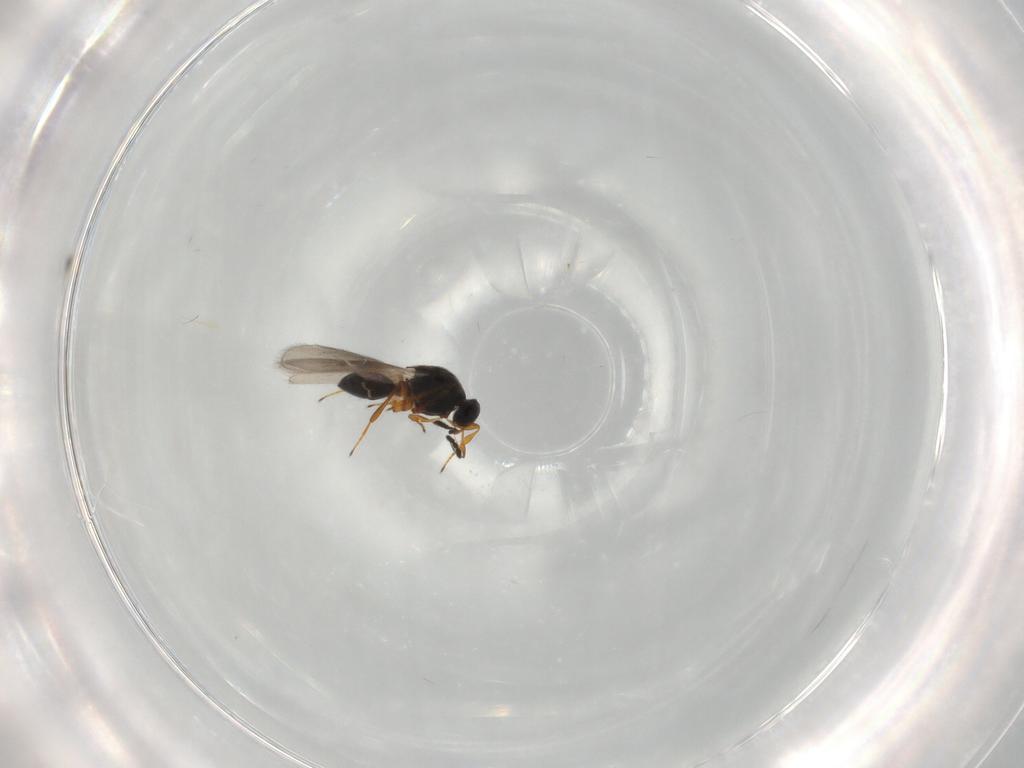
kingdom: Animalia
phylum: Arthropoda
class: Insecta
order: Hymenoptera
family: Platygastridae
